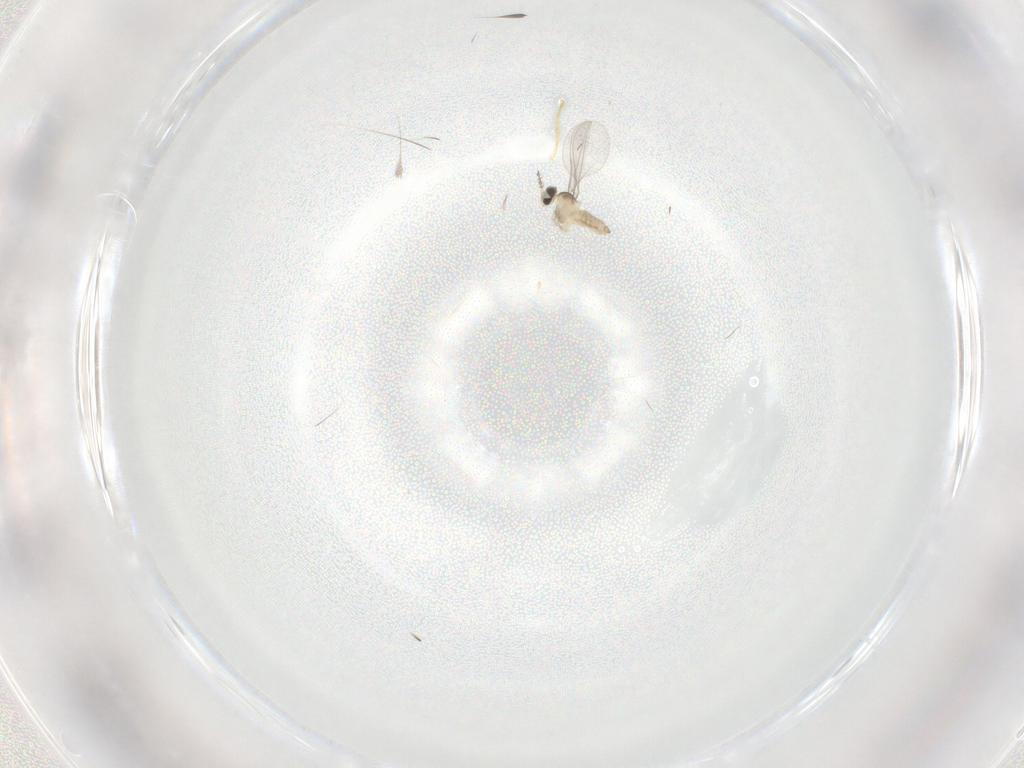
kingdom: Animalia
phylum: Arthropoda
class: Insecta
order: Diptera
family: Cecidomyiidae
